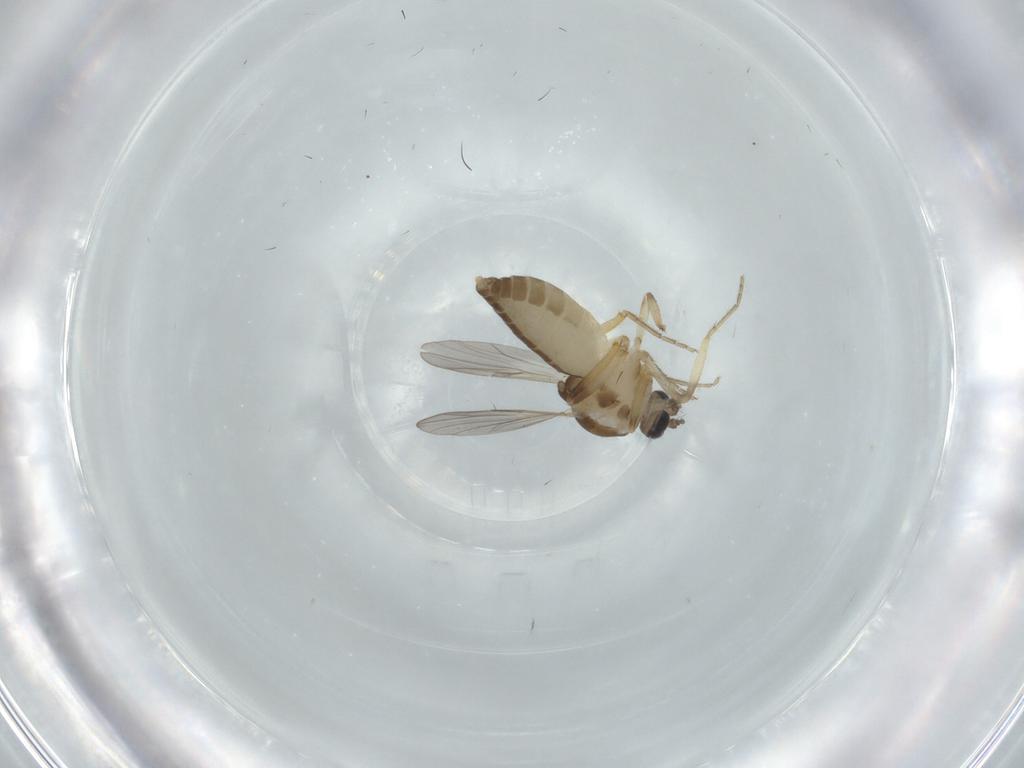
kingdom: Animalia
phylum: Arthropoda
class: Insecta
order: Diptera
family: Ceratopogonidae
